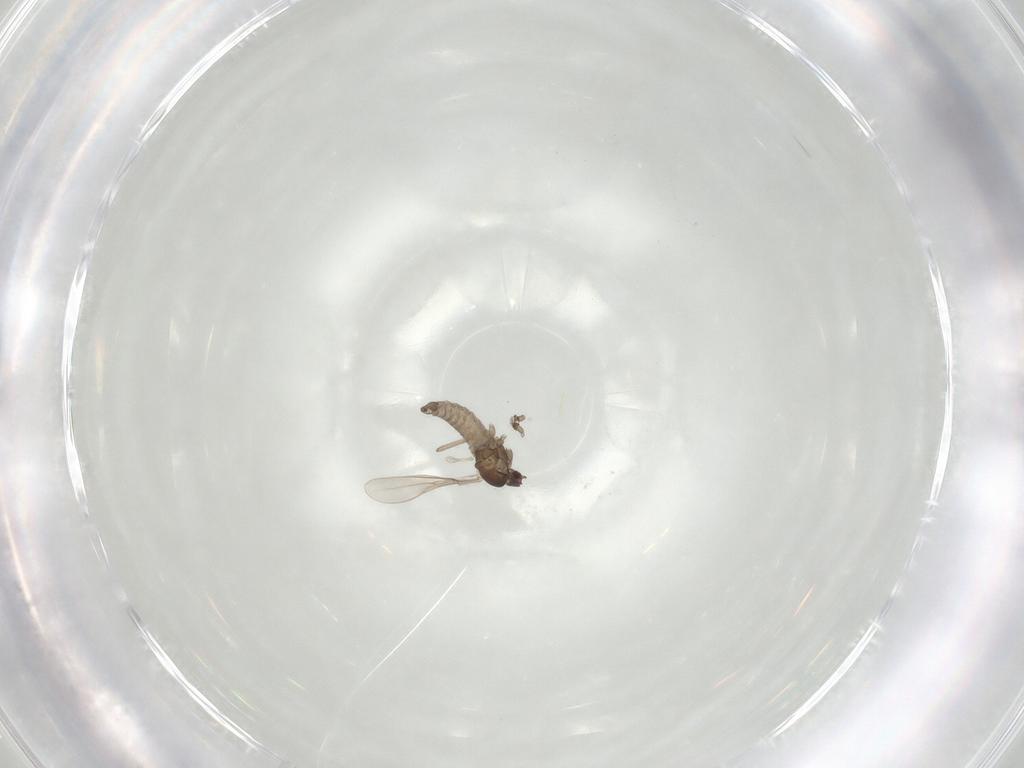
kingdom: Animalia
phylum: Arthropoda
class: Insecta
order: Diptera
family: Cecidomyiidae
